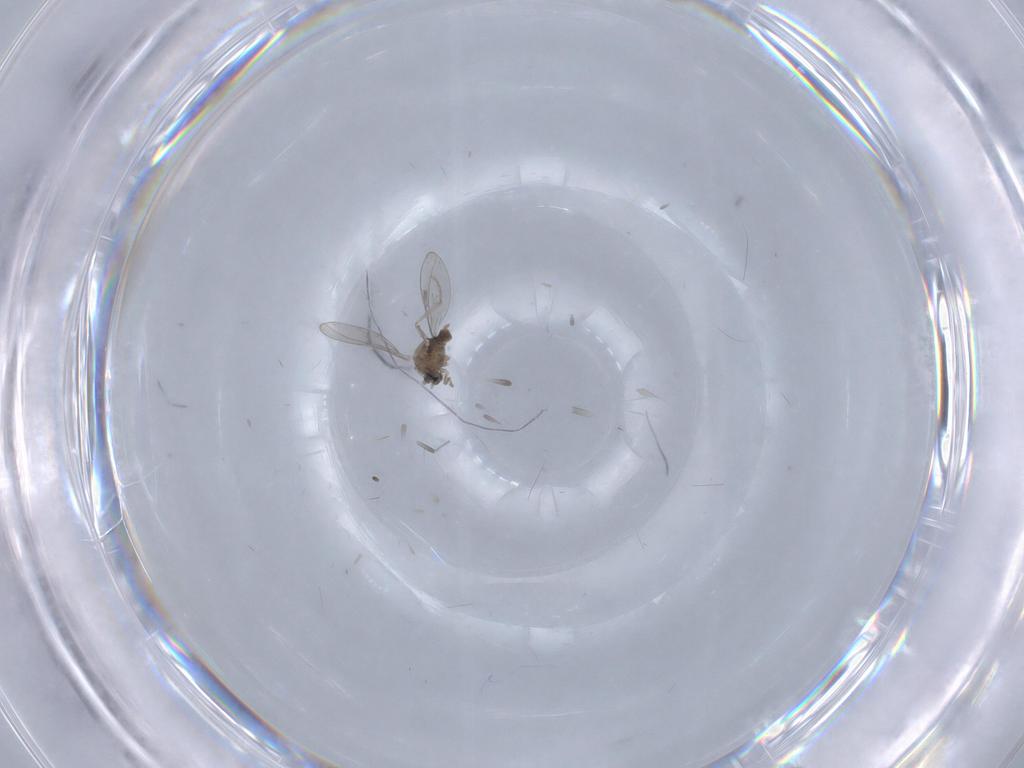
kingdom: Animalia
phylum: Arthropoda
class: Insecta
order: Diptera
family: Cecidomyiidae
